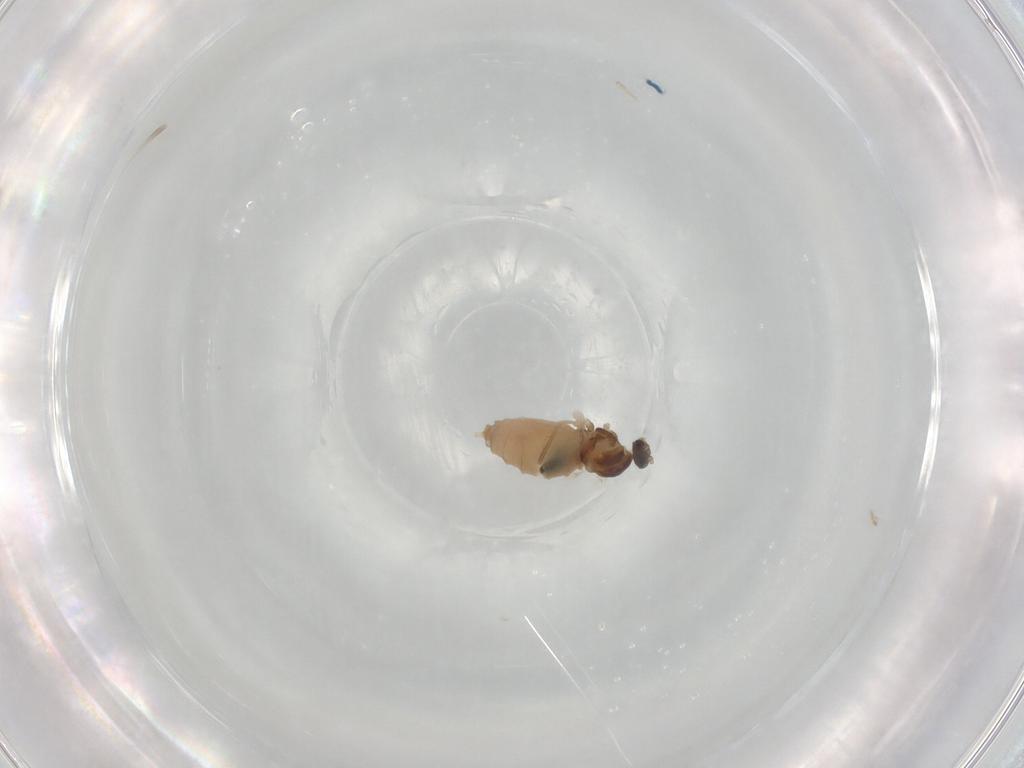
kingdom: Animalia
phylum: Arthropoda
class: Insecta
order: Diptera
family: Cecidomyiidae
